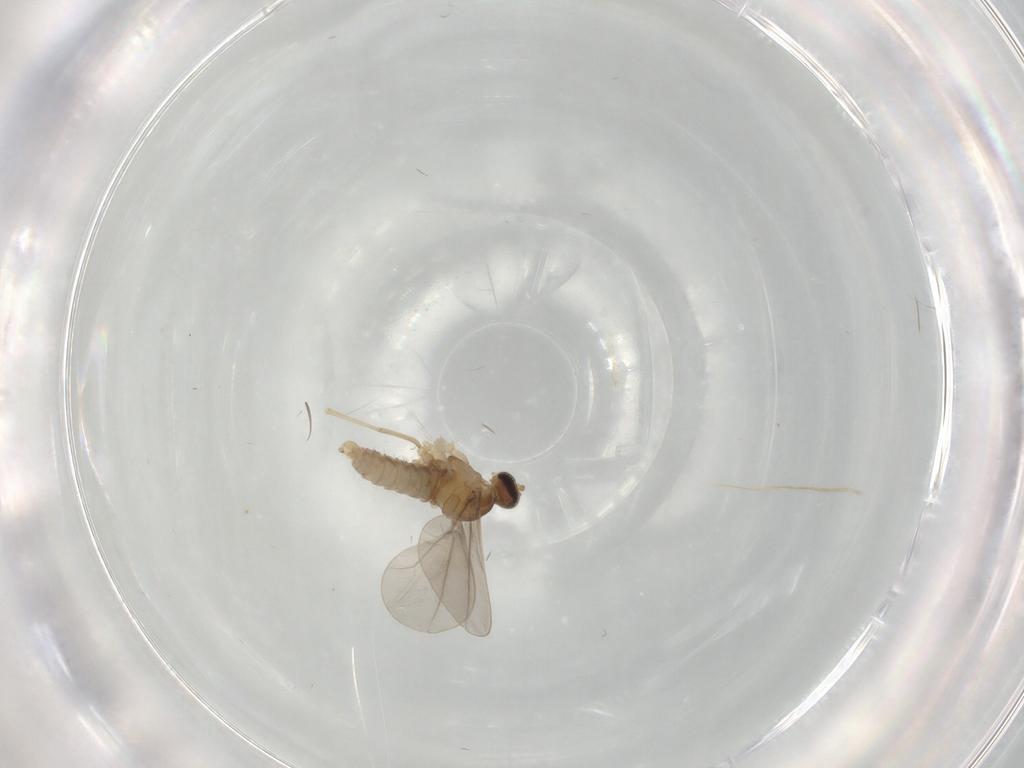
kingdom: Animalia
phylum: Arthropoda
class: Insecta
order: Diptera
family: Cecidomyiidae
